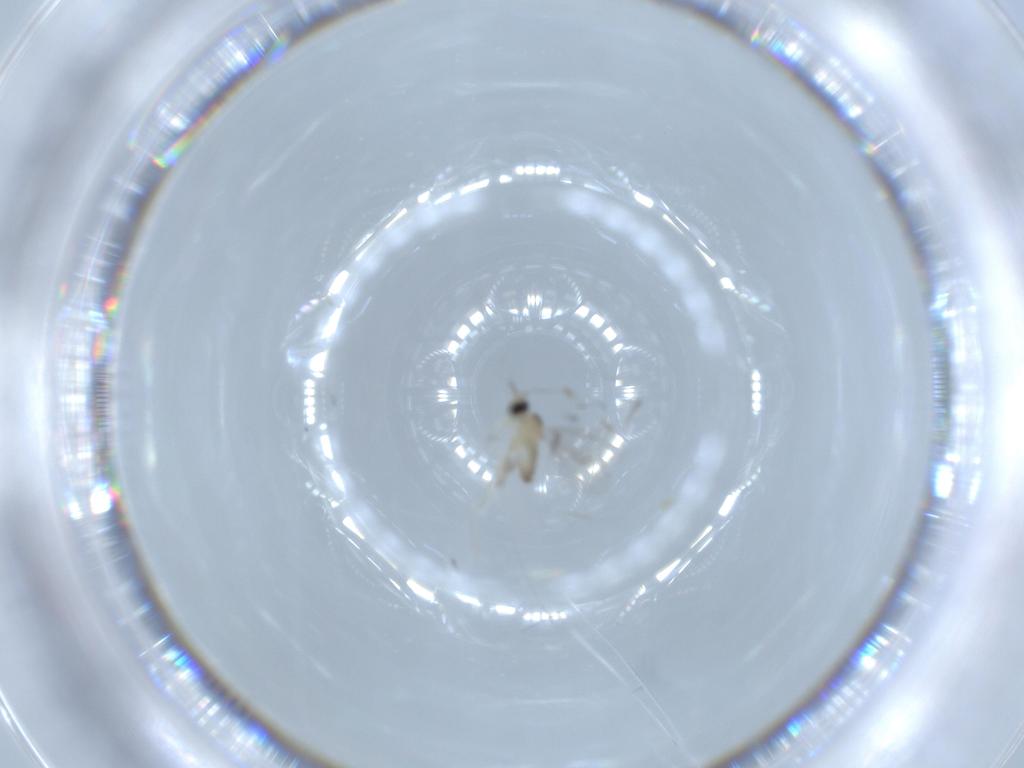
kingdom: Animalia
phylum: Arthropoda
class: Insecta
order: Diptera
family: Cecidomyiidae
